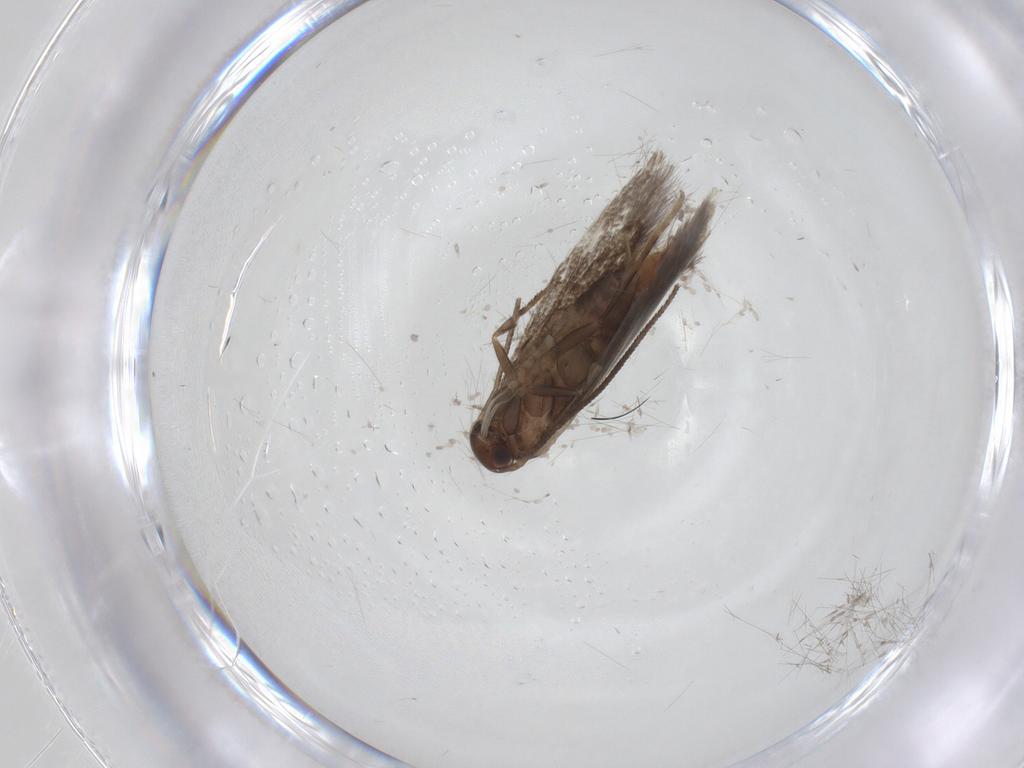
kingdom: Animalia
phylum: Arthropoda
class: Insecta
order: Lepidoptera
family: Elachistidae
